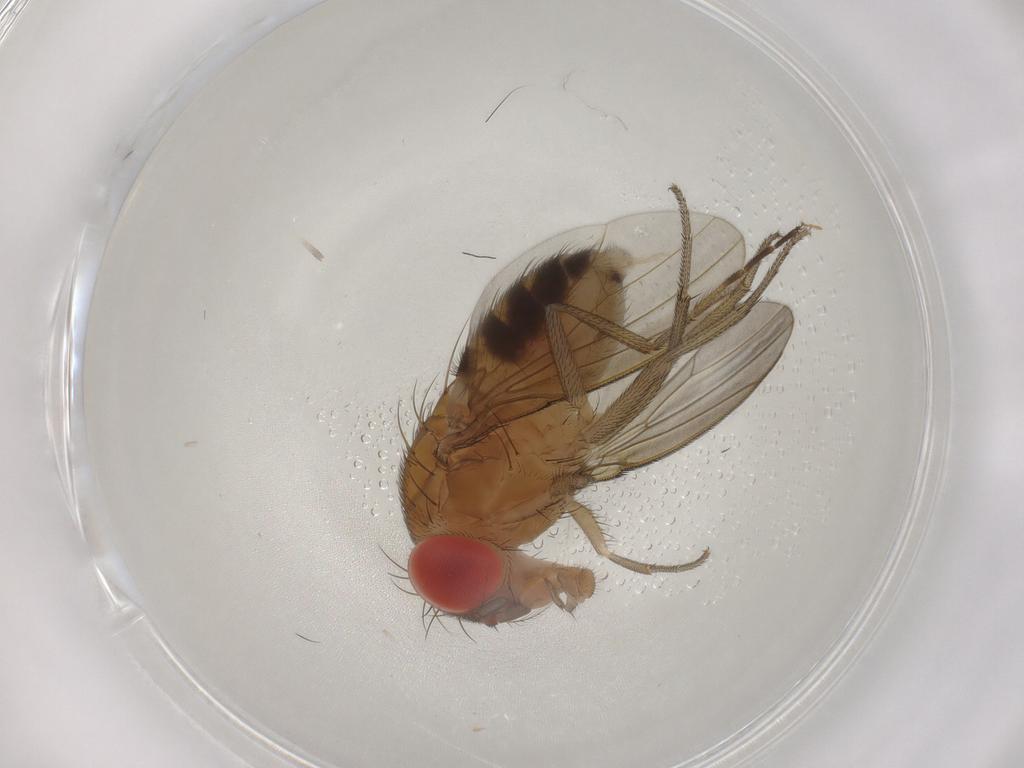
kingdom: Animalia
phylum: Arthropoda
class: Insecta
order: Diptera
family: Drosophilidae
